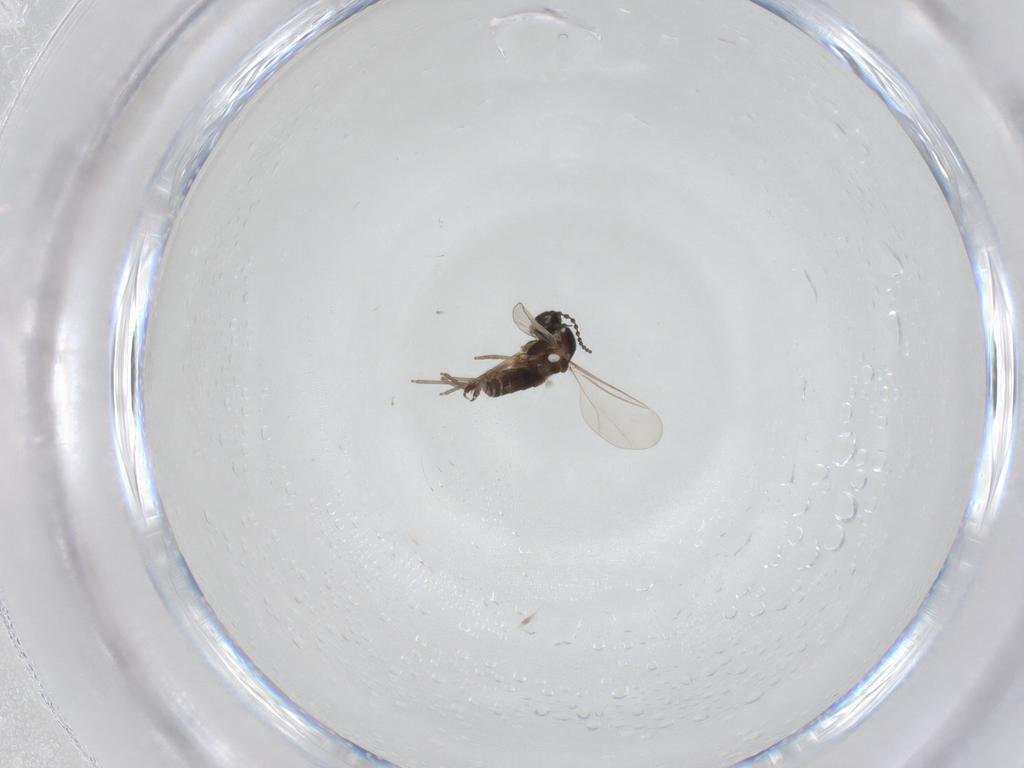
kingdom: Animalia
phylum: Arthropoda
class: Insecta
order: Diptera
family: Cecidomyiidae
